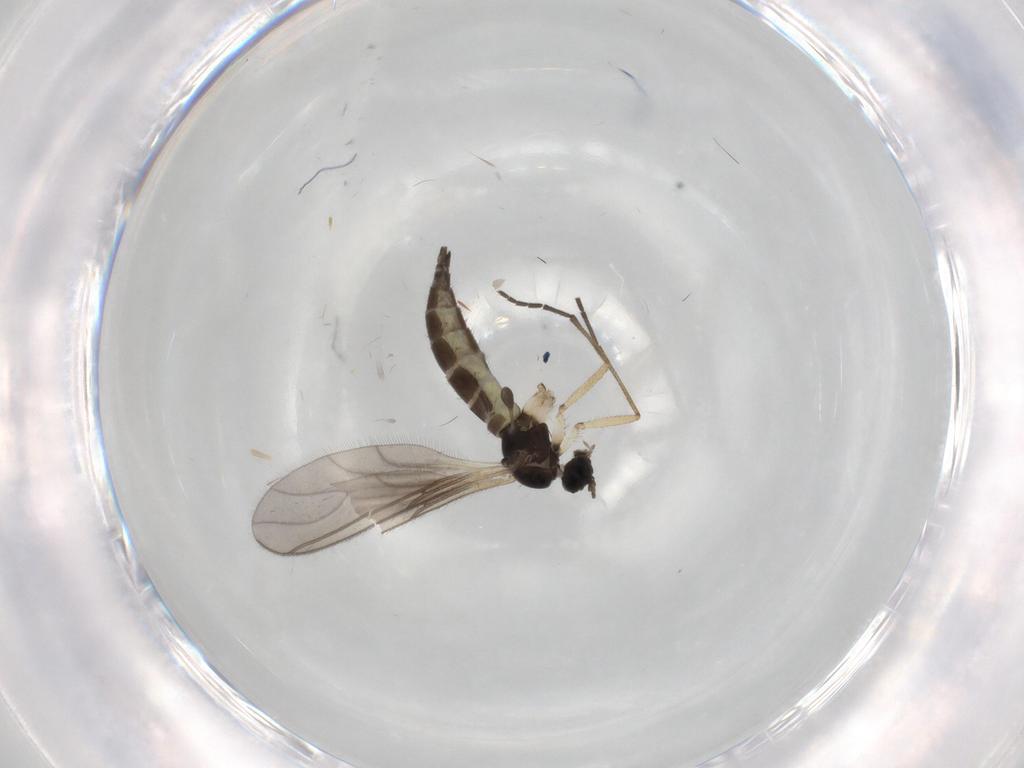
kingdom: Animalia
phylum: Arthropoda
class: Insecta
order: Diptera
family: Sciaridae
